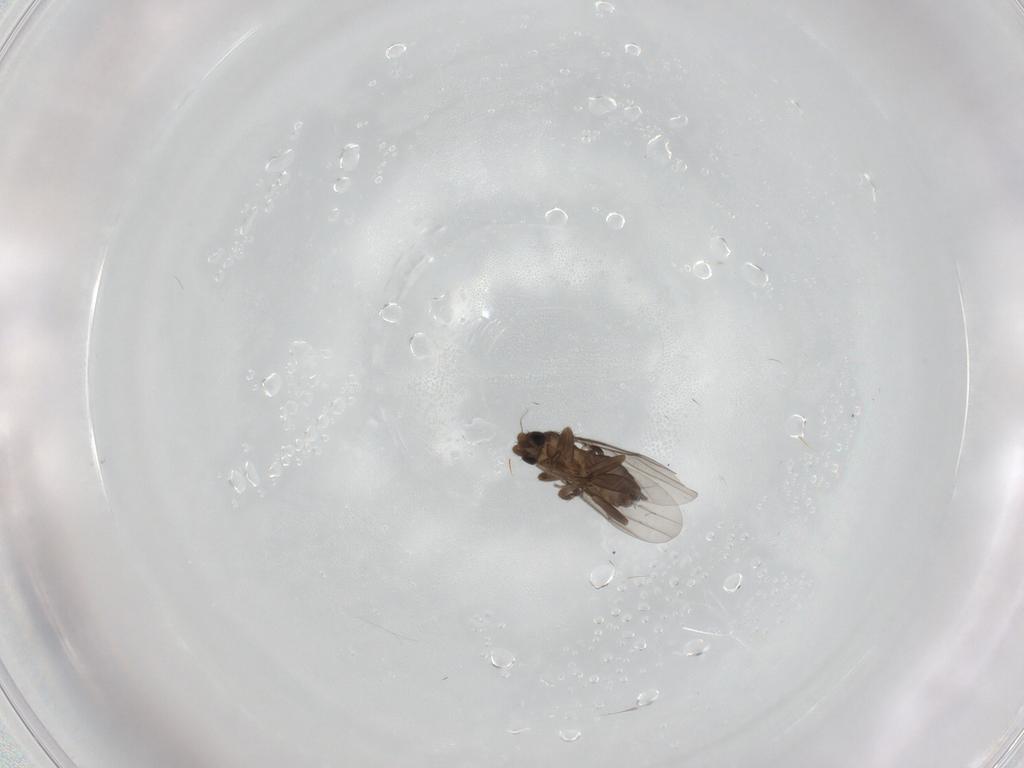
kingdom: Animalia
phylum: Arthropoda
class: Insecta
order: Diptera
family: Phoridae
